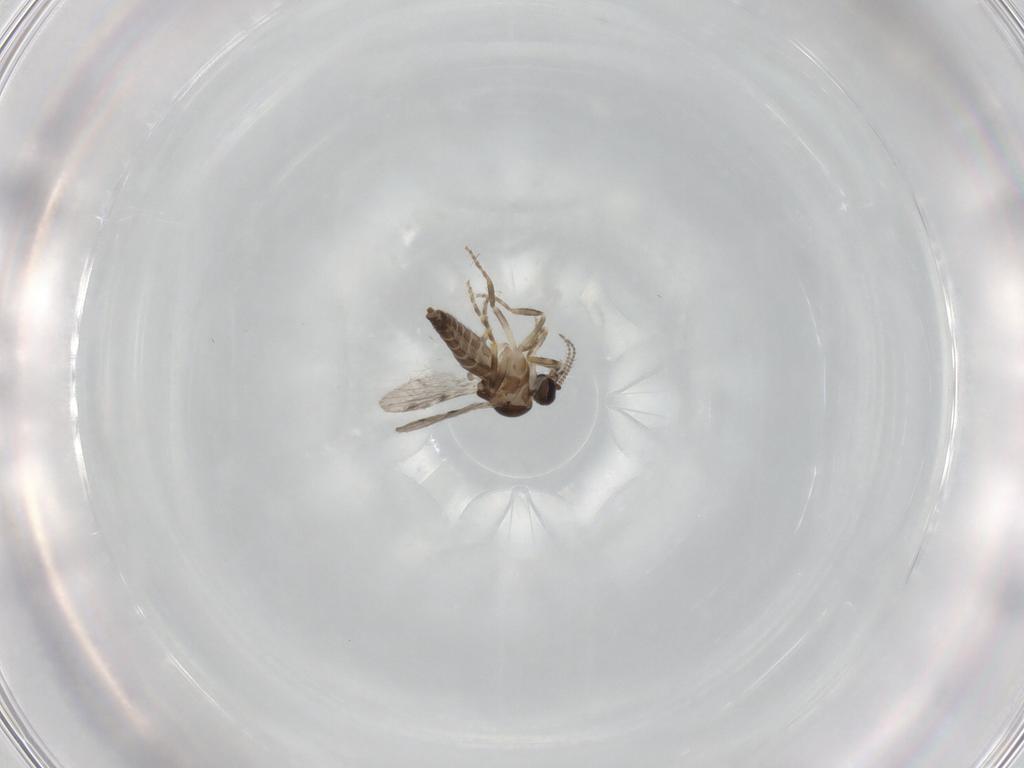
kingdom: Animalia
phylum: Arthropoda
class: Insecta
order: Diptera
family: Ceratopogonidae
